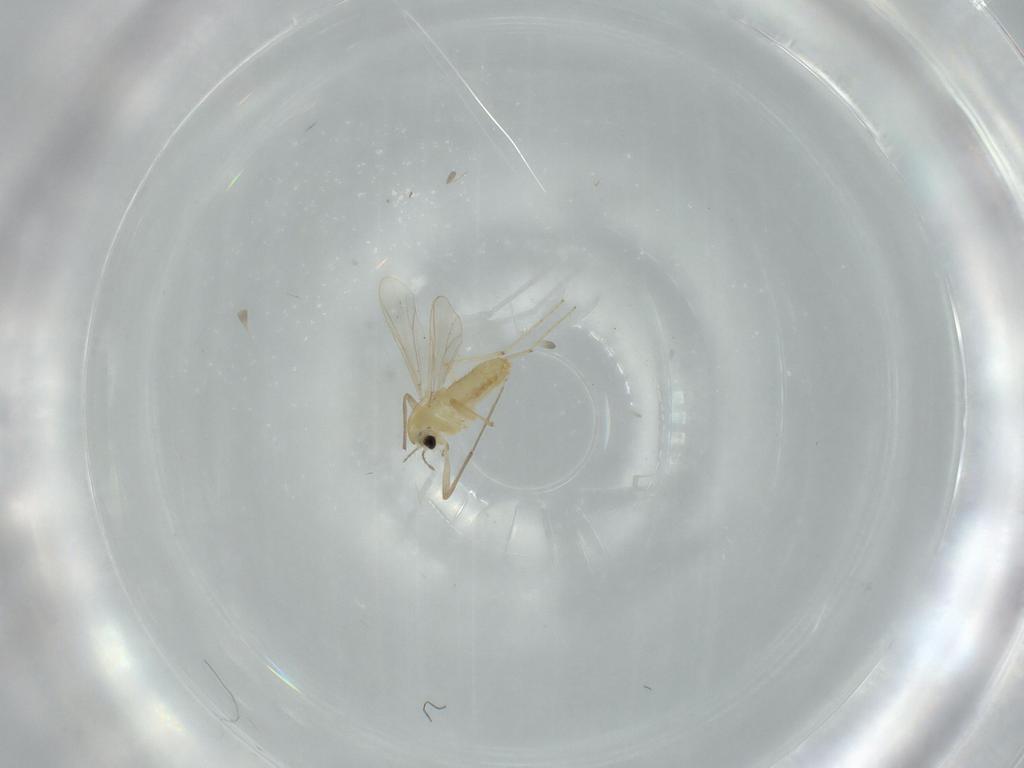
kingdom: Animalia
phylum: Arthropoda
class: Insecta
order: Diptera
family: Chironomidae
